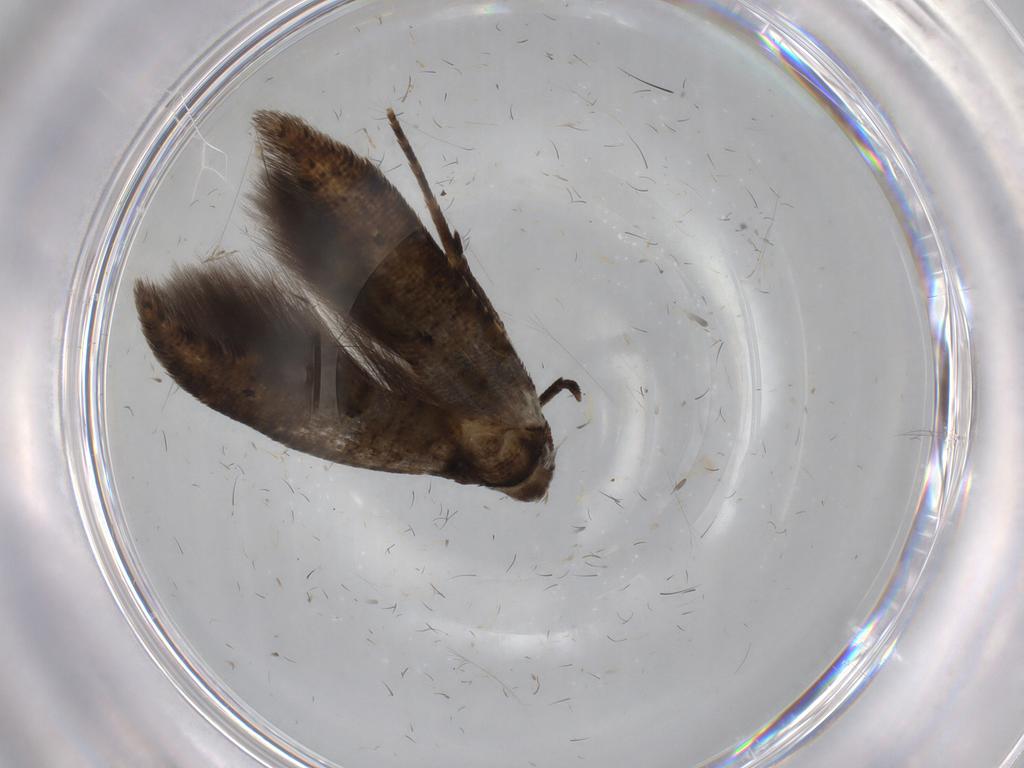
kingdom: Animalia
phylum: Arthropoda
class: Insecta
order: Lepidoptera
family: Depressariidae
